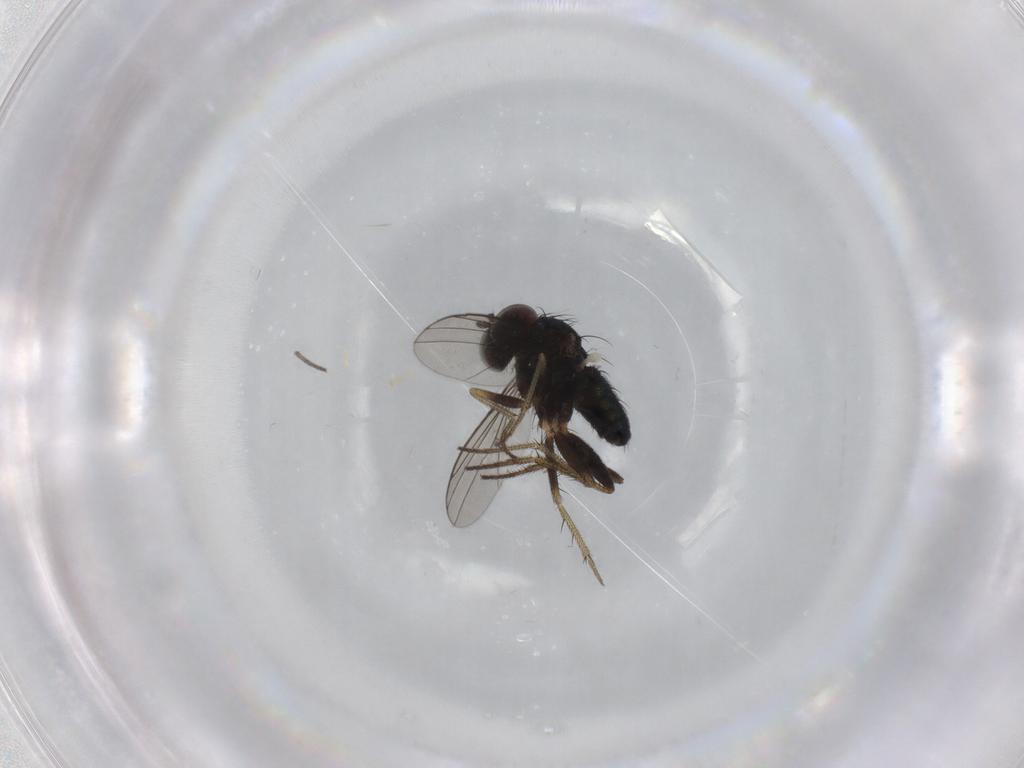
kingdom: Animalia
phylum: Arthropoda
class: Insecta
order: Diptera
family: Dolichopodidae
